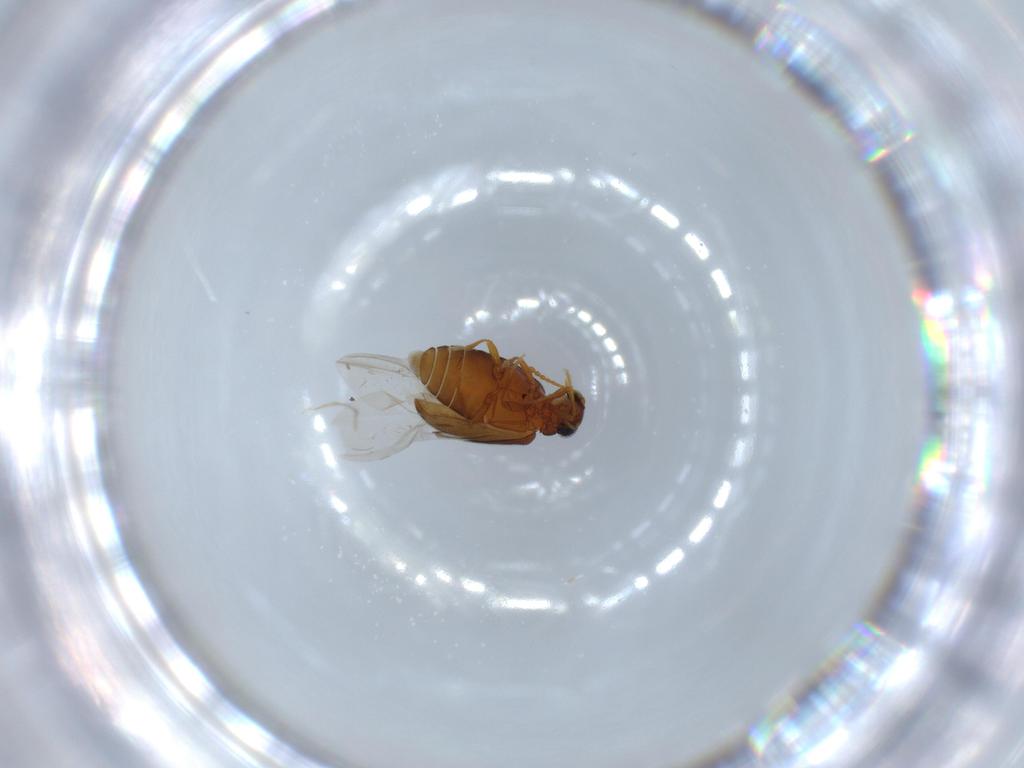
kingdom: Animalia
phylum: Arthropoda
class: Insecta
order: Coleoptera
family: Aderidae
